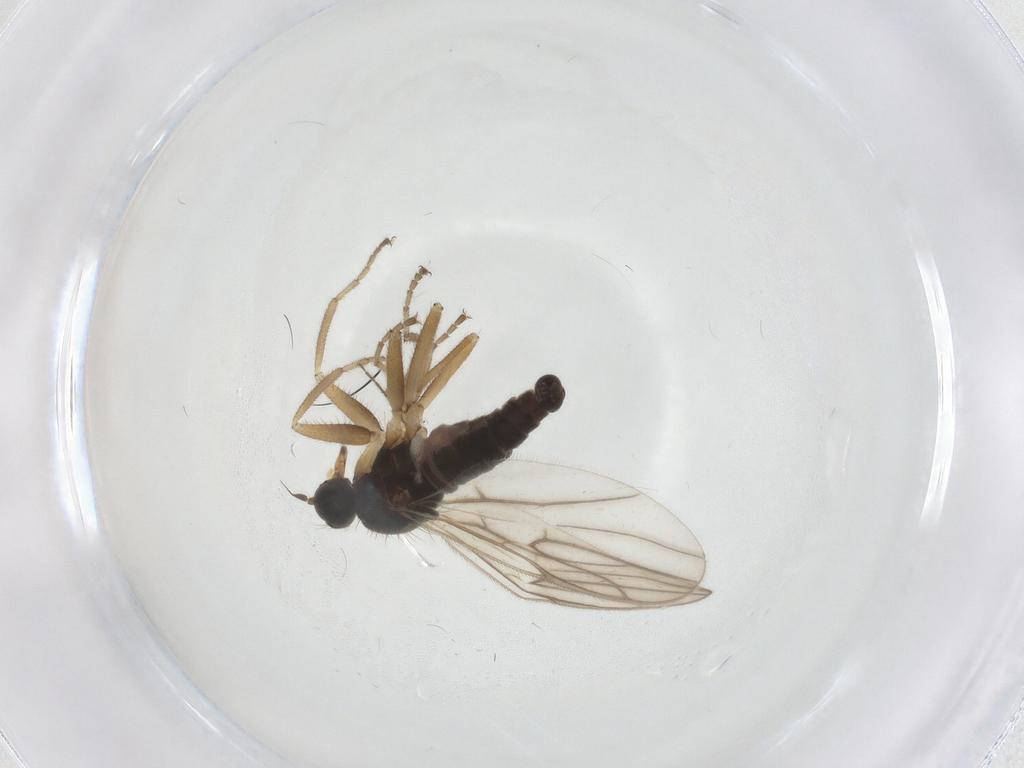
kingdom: Animalia
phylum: Arthropoda
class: Insecta
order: Diptera
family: Hybotidae
